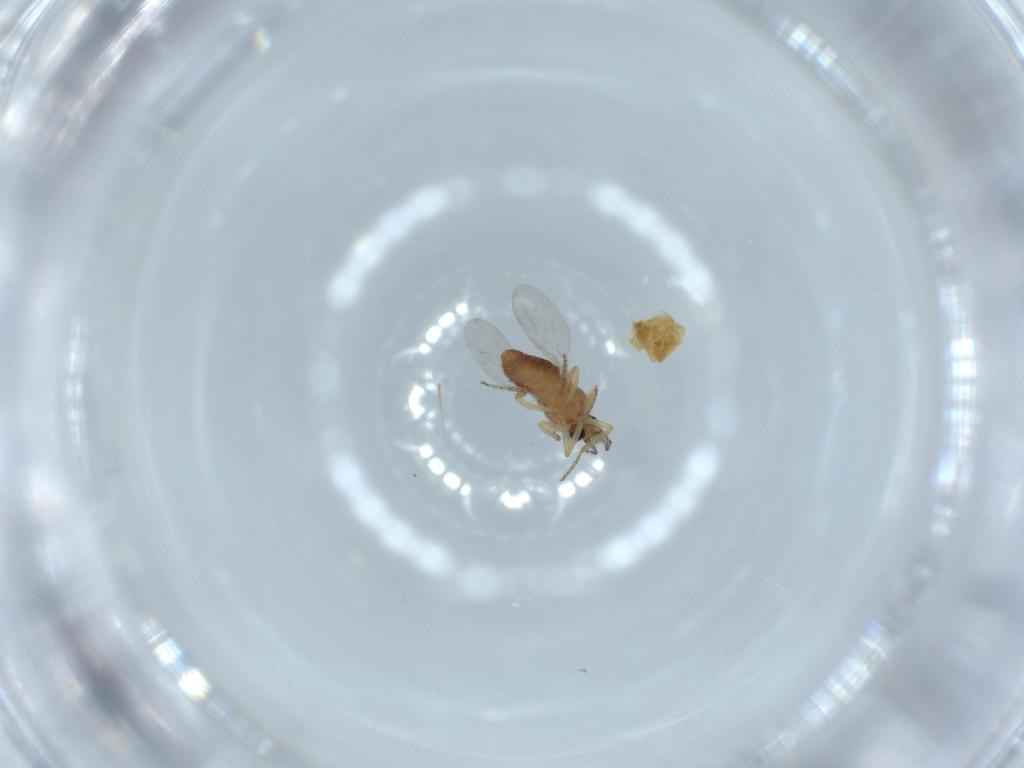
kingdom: Animalia
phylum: Arthropoda
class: Insecta
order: Diptera
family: Ceratopogonidae
